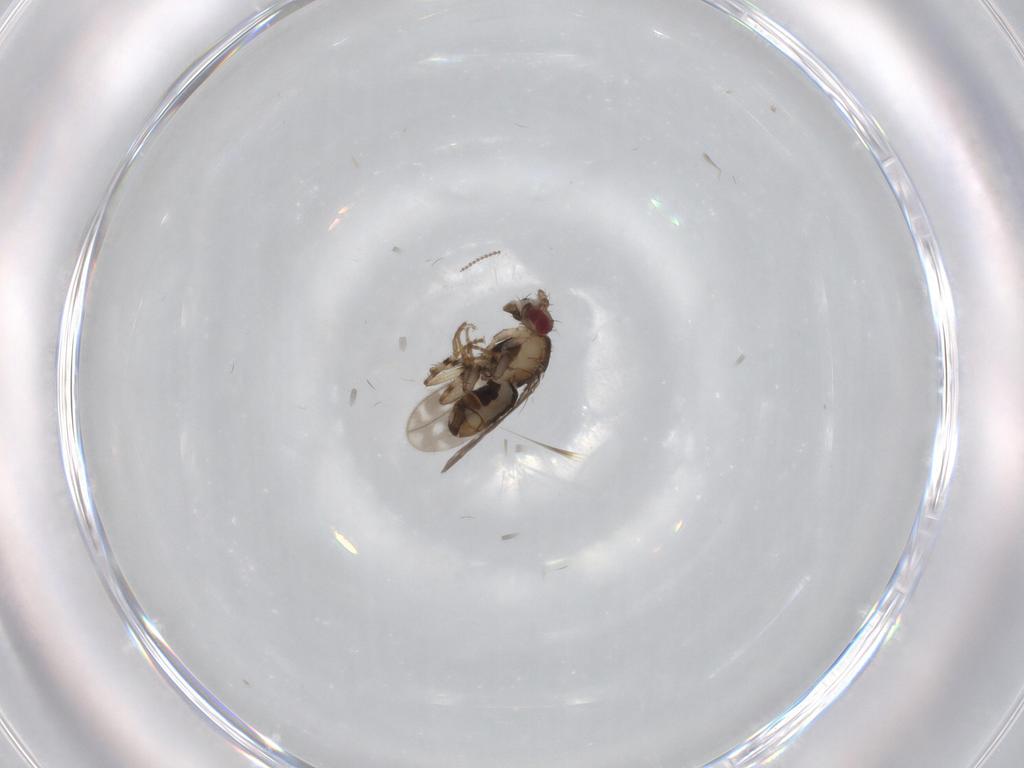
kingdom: Animalia
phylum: Arthropoda
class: Insecta
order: Diptera
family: Sphaeroceridae
